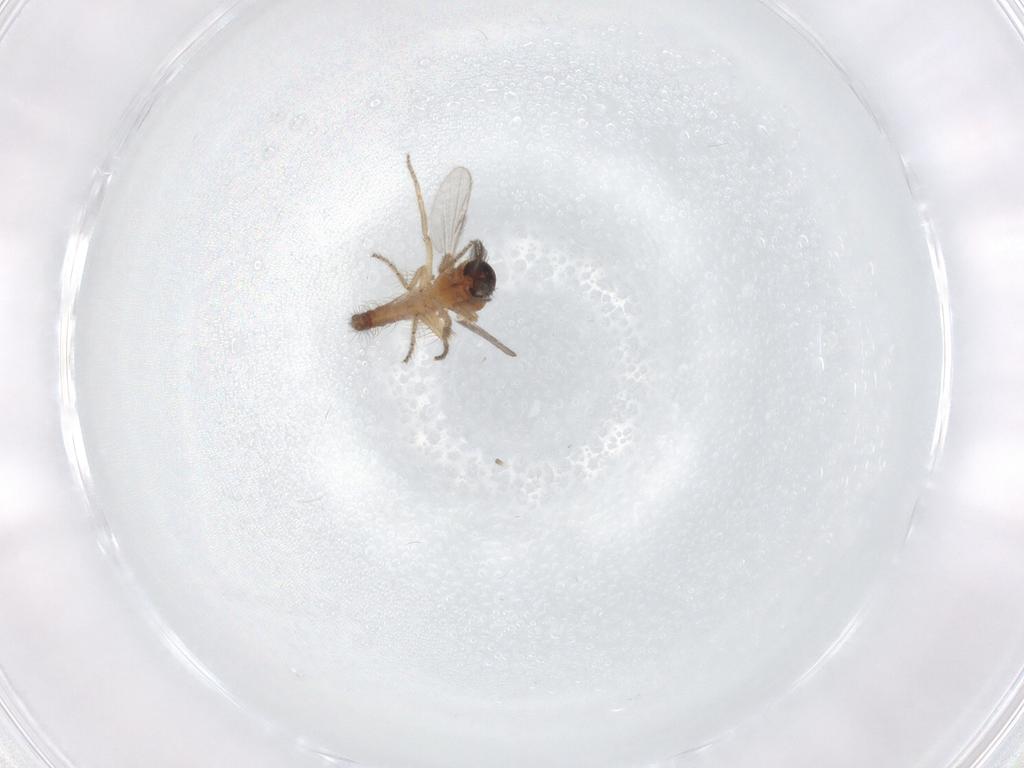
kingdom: Animalia
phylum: Arthropoda
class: Insecta
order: Diptera
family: Ceratopogonidae
